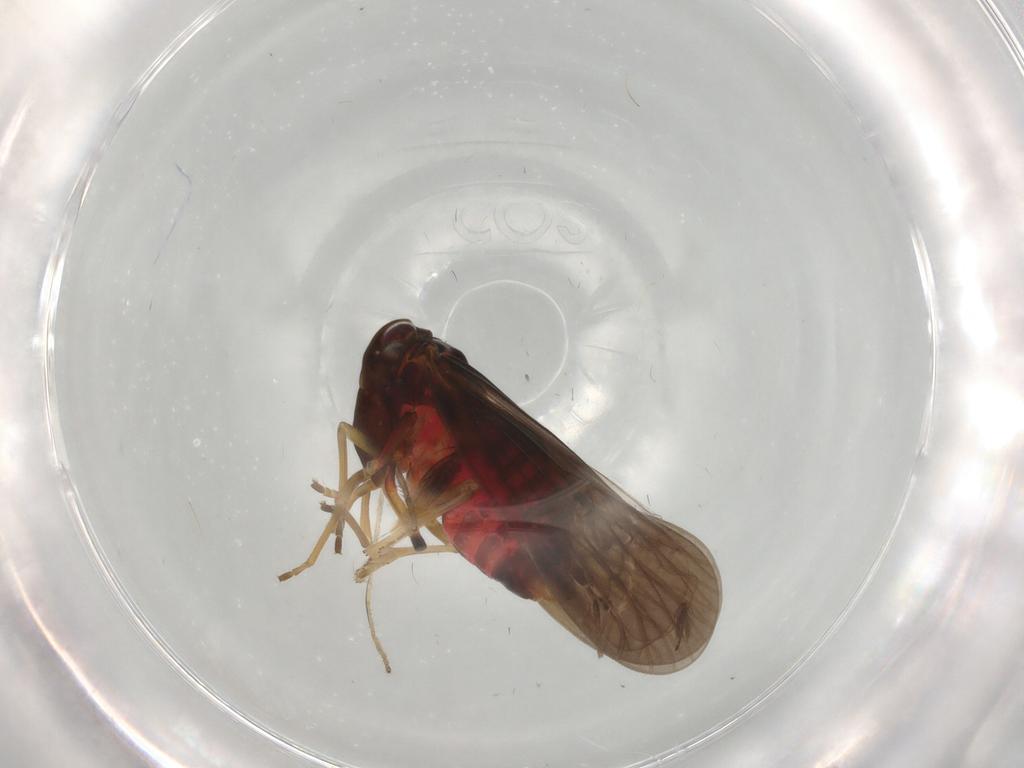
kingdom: Animalia
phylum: Arthropoda
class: Insecta
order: Hemiptera
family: Derbidae
